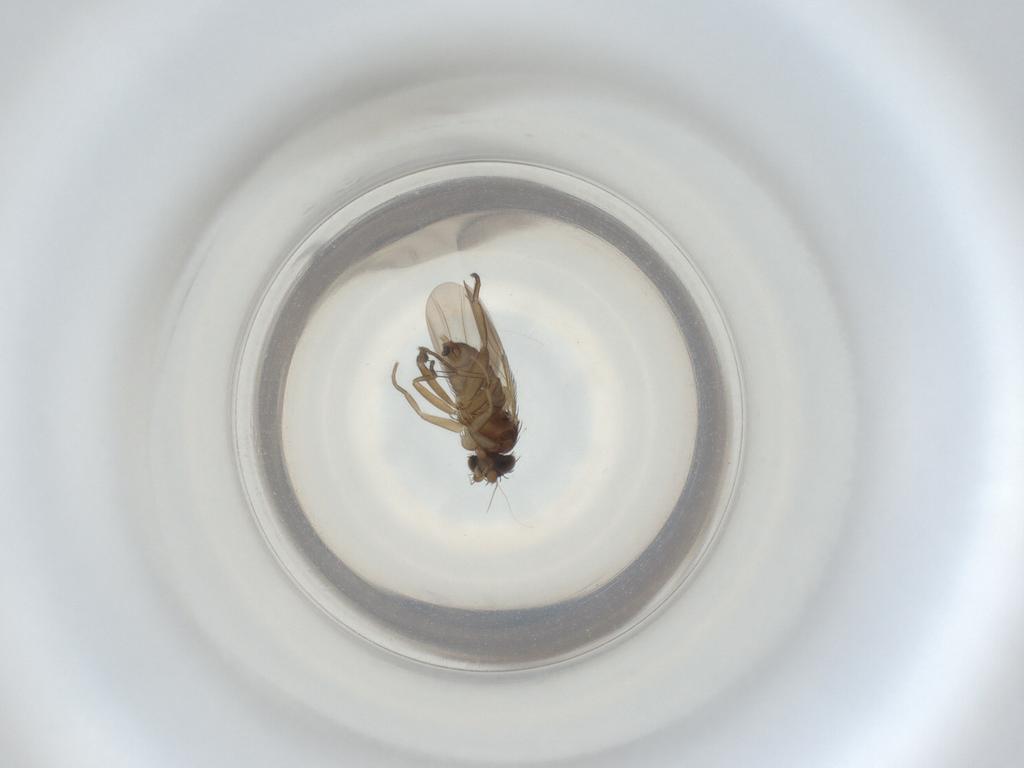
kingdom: Animalia
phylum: Arthropoda
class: Insecta
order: Diptera
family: Phoridae
